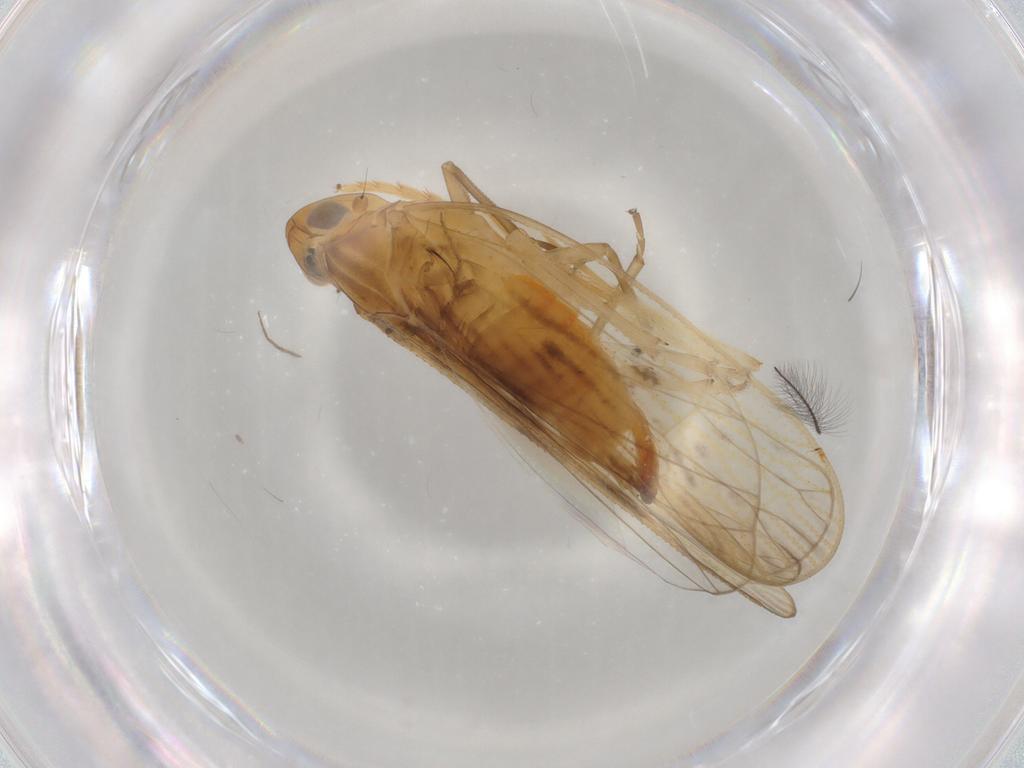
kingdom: Animalia
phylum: Arthropoda
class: Insecta
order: Hemiptera
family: Cixiidae
